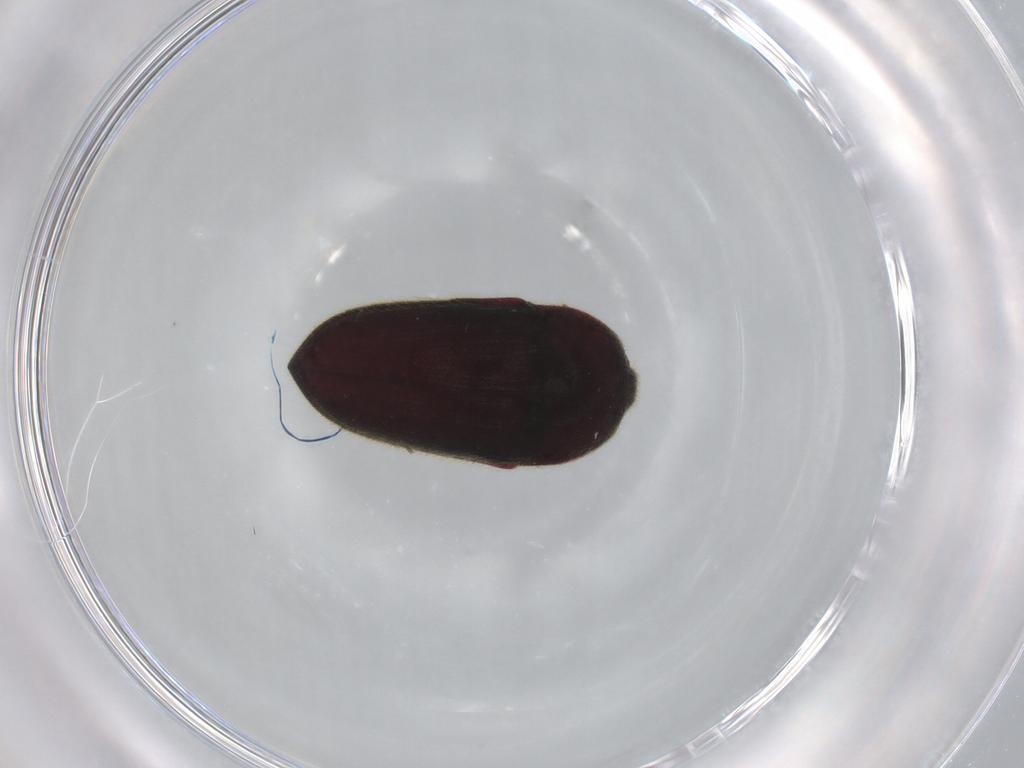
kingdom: Animalia
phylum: Arthropoda
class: Insecta
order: Coleoptera
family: Throscidae
